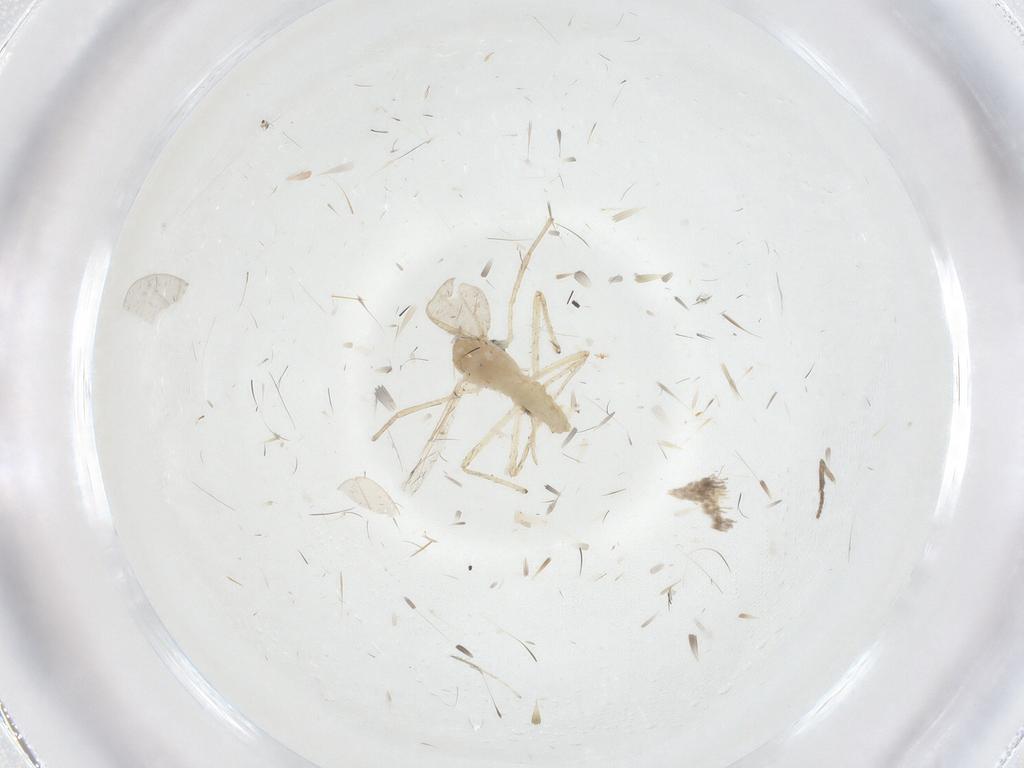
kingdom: Animalia
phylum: Arthropoda
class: Insecta
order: Diptera
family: Chironomidae
